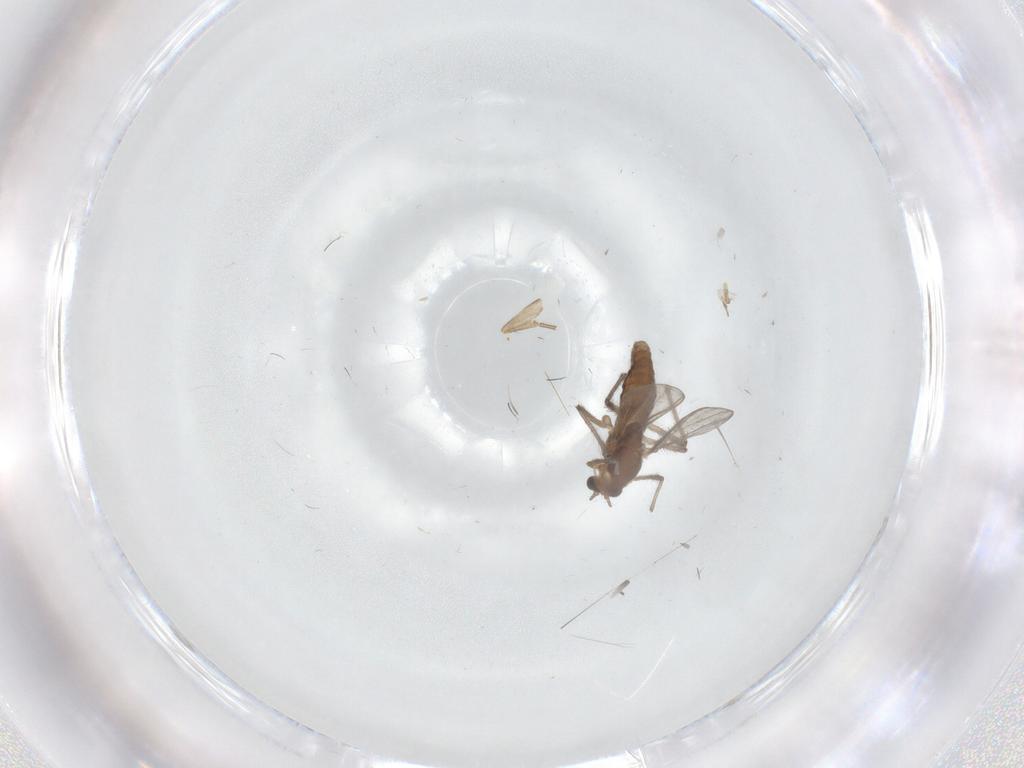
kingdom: Animalia
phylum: Arthropoda
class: Insecta
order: Diptera
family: Chironomidae
